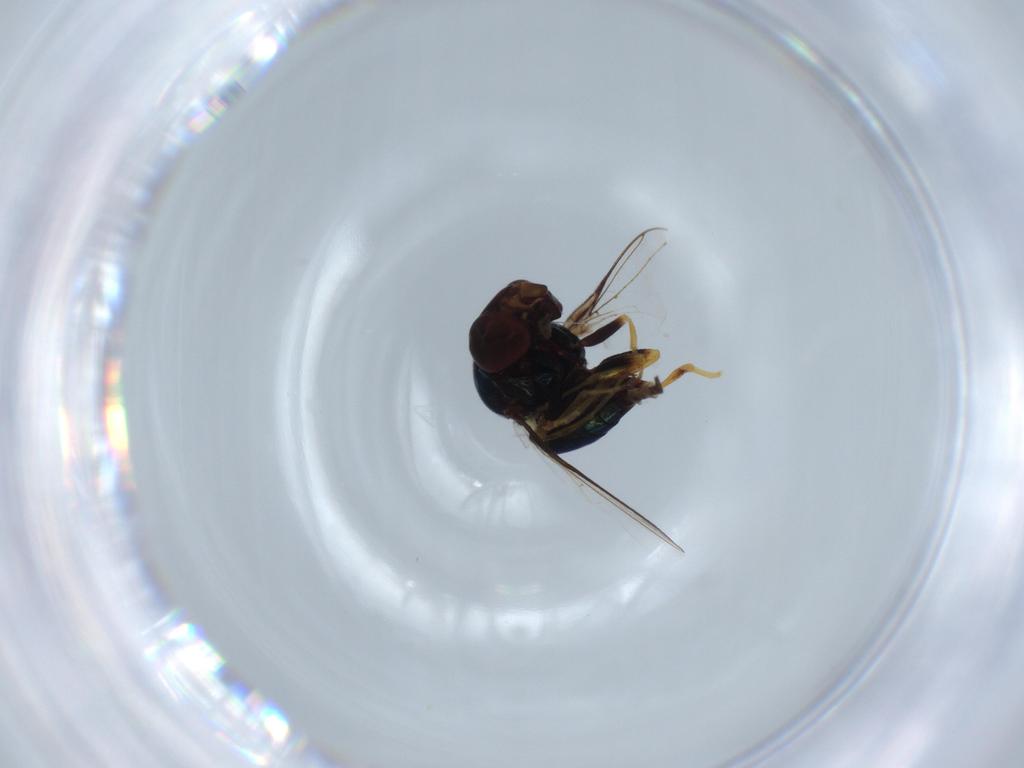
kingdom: Animalia
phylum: Arthropoda
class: Insecta
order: Diptera
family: Chloropidae
